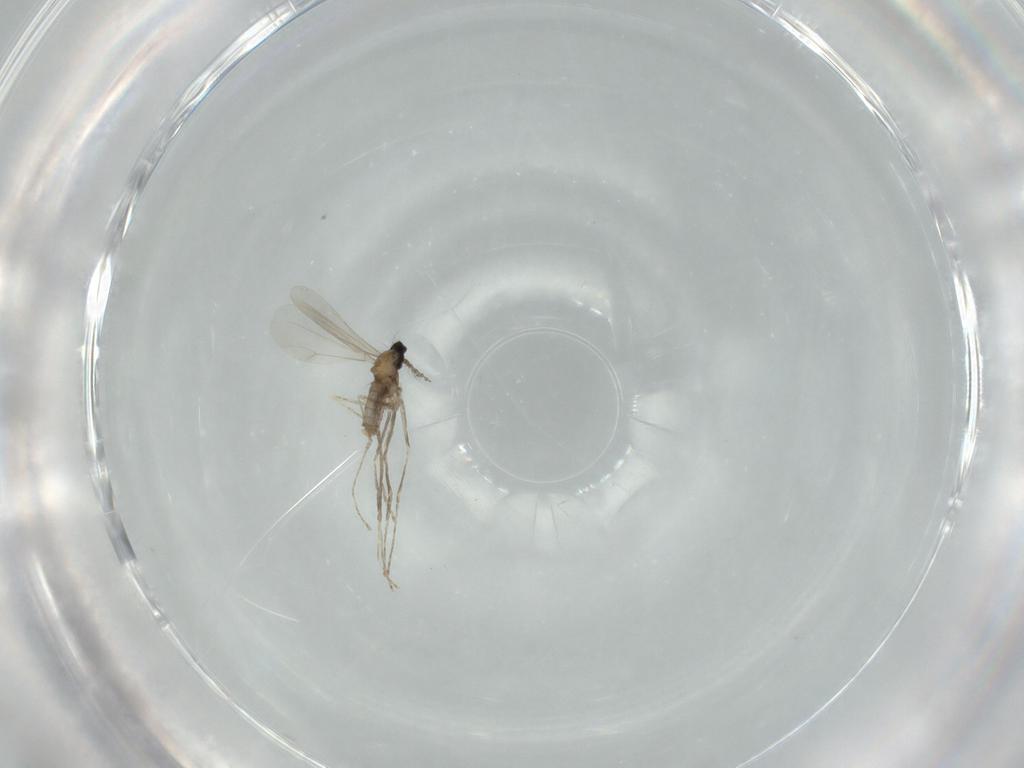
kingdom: Animalia
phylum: Arthropoda
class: Insecta
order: Diptera
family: Cecidomyiidae
